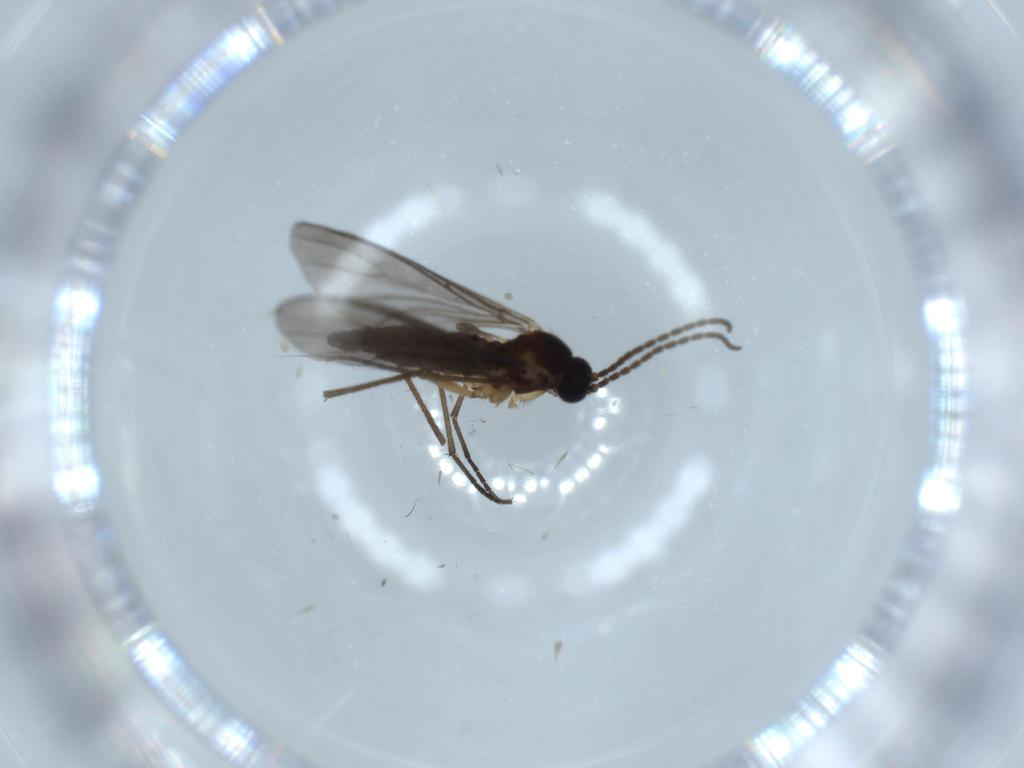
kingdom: Animalia
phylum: Arthropoda
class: Insecta
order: Diptera
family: Sciaridae
